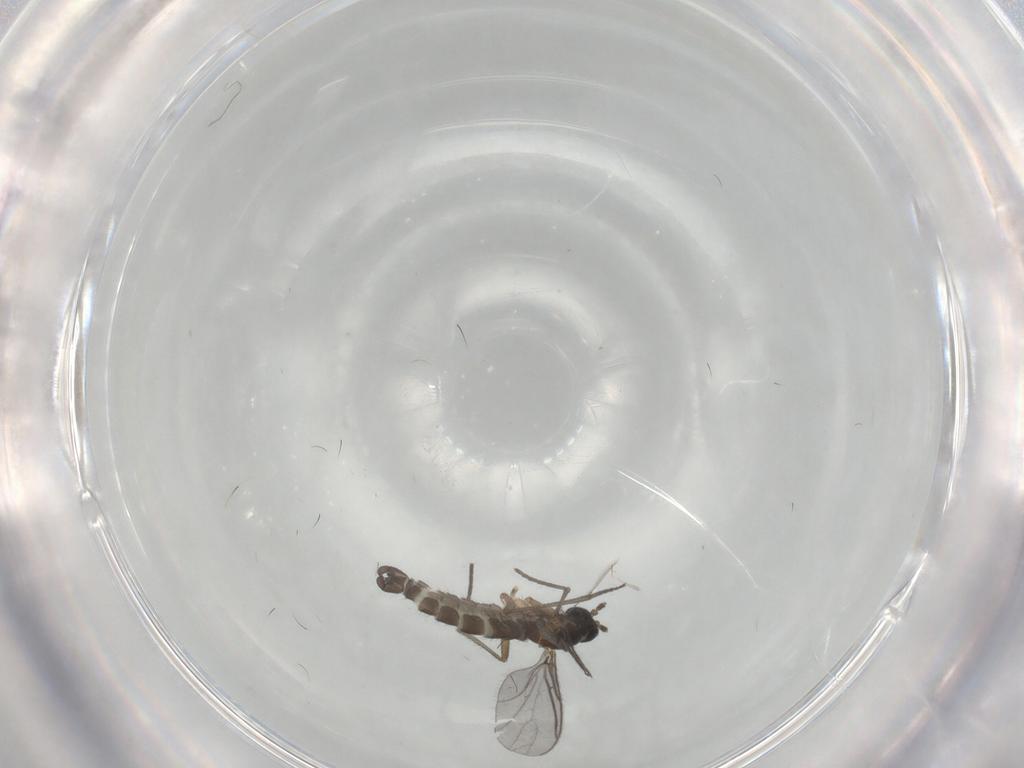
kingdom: Animalia
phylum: Arthropoda
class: Insecta
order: Diptera
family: Sciaridae
